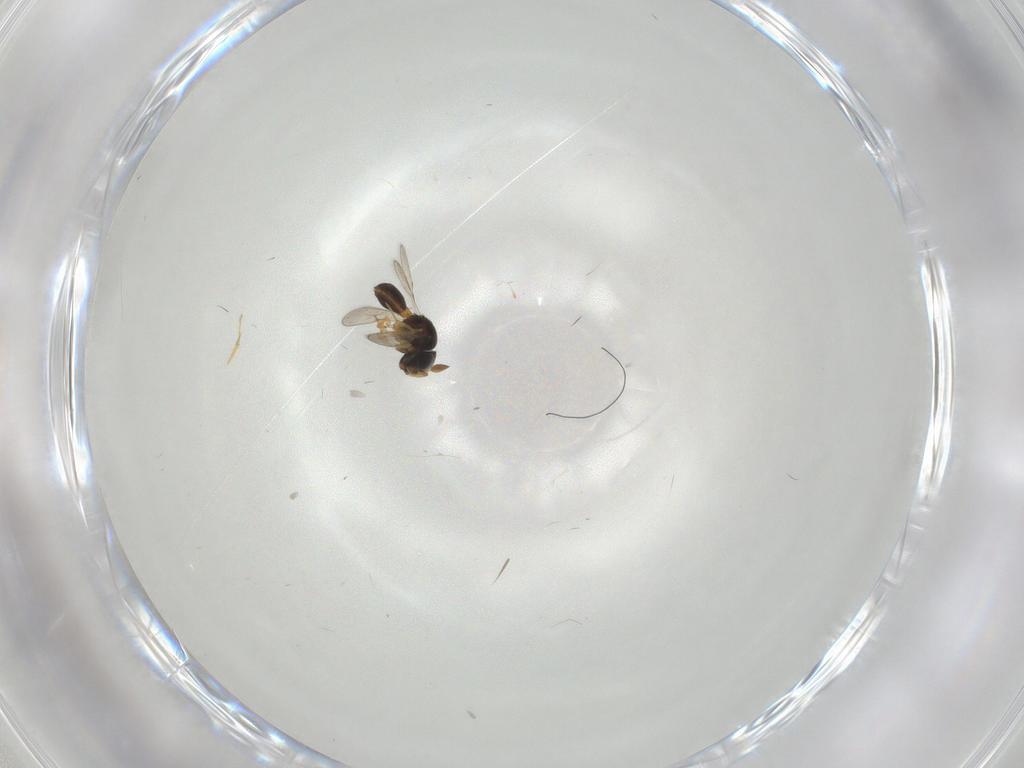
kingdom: Animalia
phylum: Arthropoda
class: Insecta
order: Hymenoptera
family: Scelionidae
